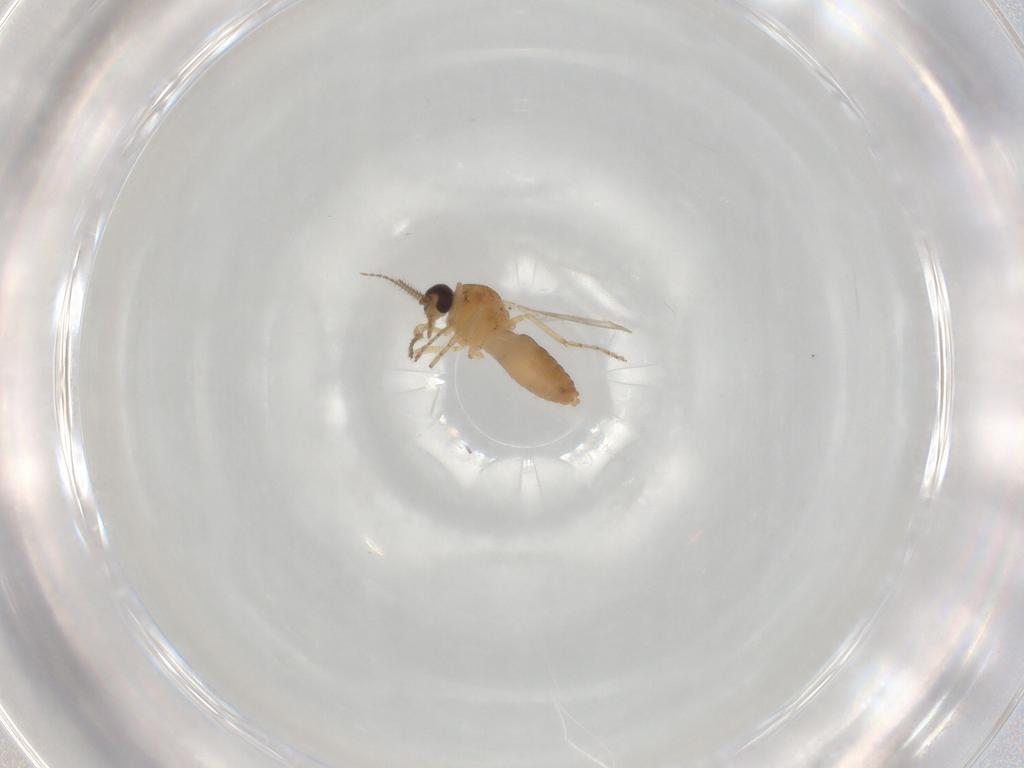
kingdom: Animalia
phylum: Arthropoda
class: Insecta
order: Diptera
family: Ceratopogonidae
